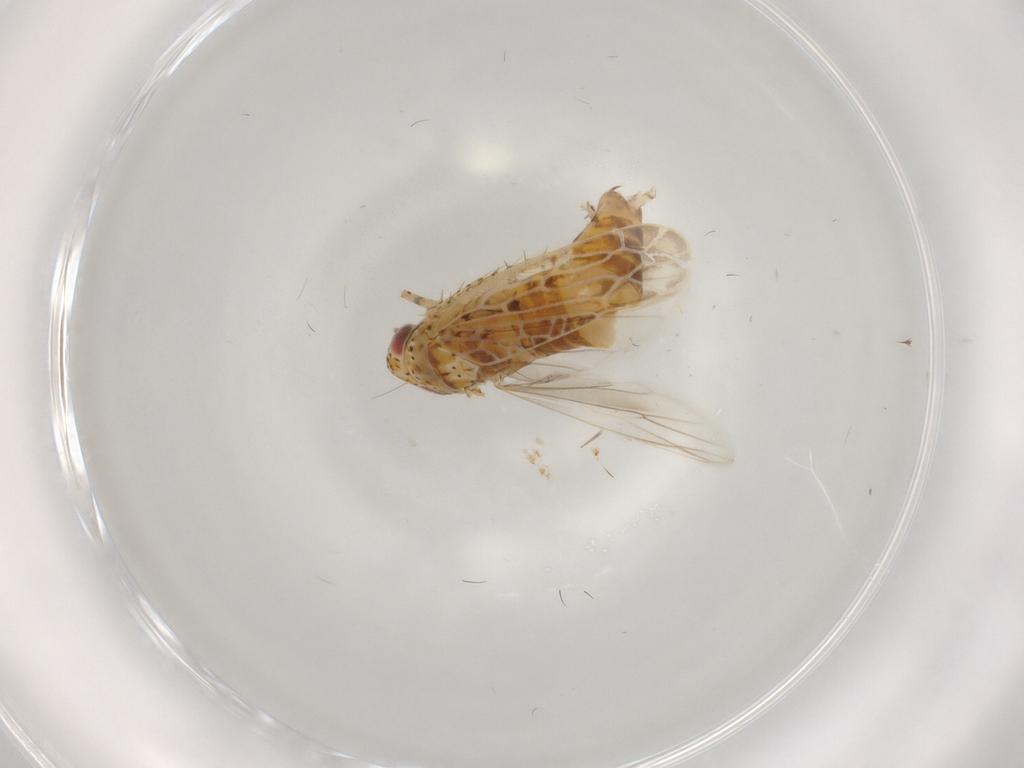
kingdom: Animalia
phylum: Arthropoda
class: Insecta
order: Hemiptera
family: Cicadellidae
